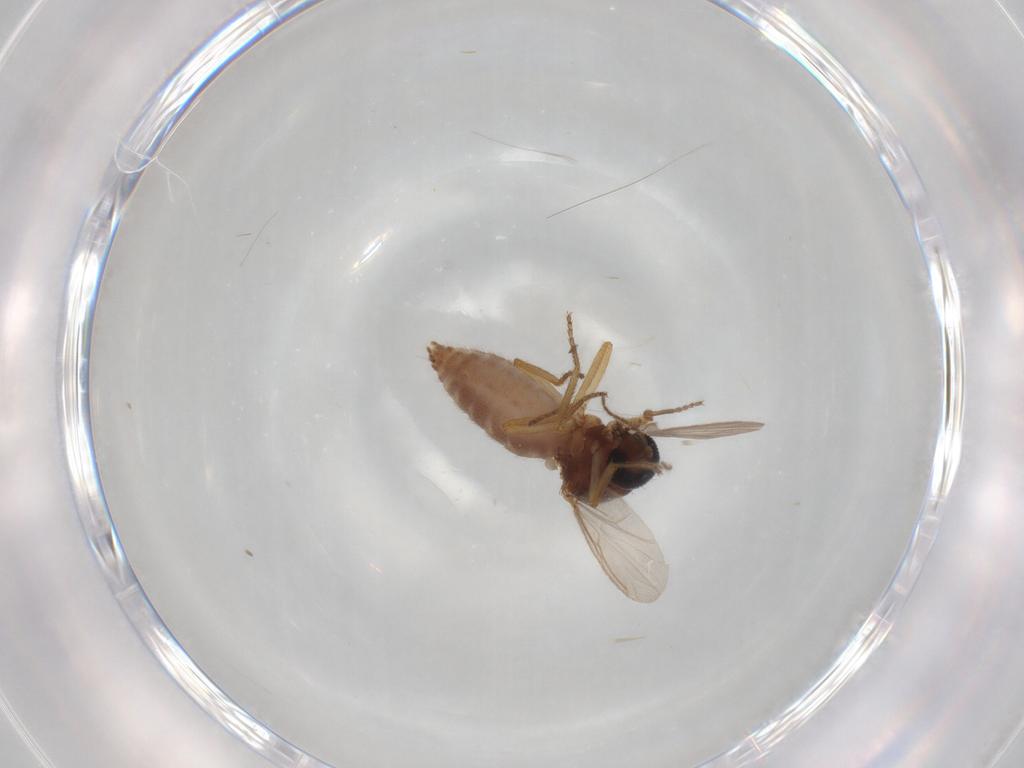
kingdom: Animalia
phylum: Arthropoda
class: Insecta
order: Diptera
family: Ceratopogonidae
